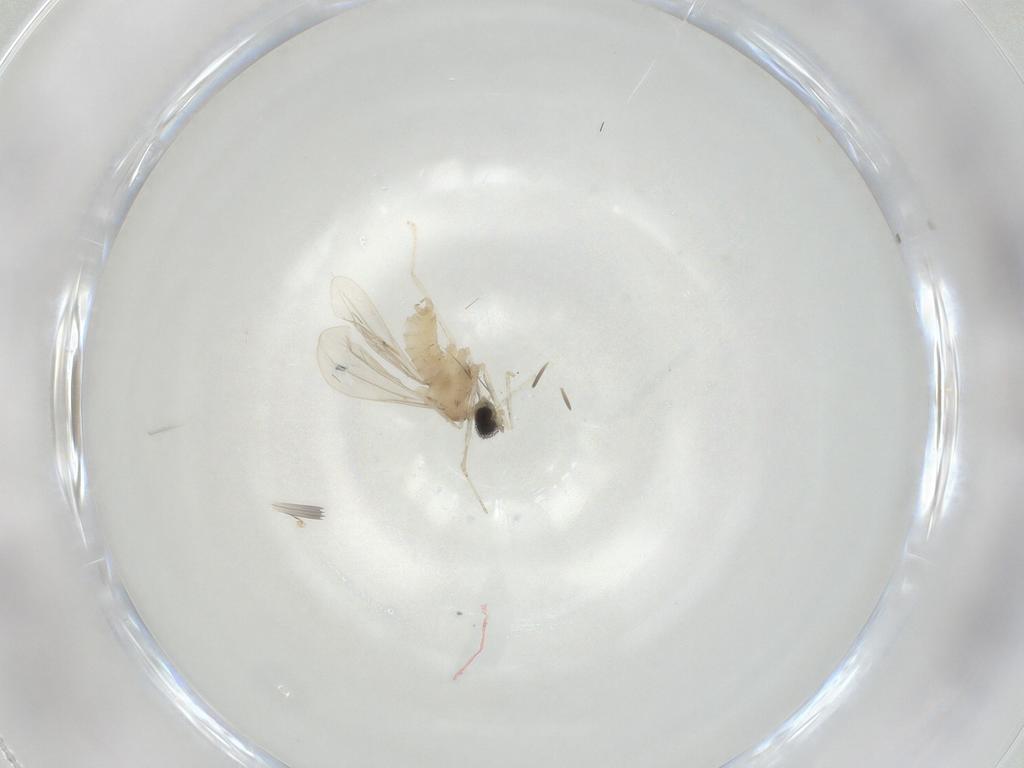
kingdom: Animalia
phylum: Arthropoda
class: Insecta
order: Diptera
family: Cecidomyiidae
